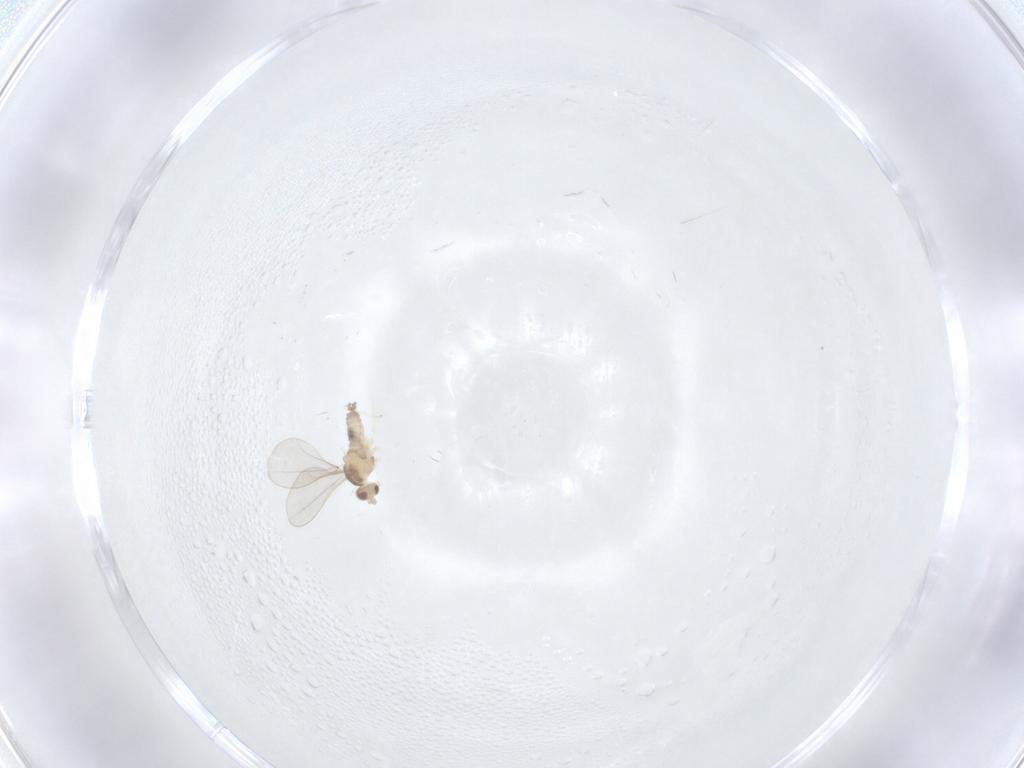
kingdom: Animalia
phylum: Arthropoda
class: Insecta
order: Diptera
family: Cecidomyiidae
